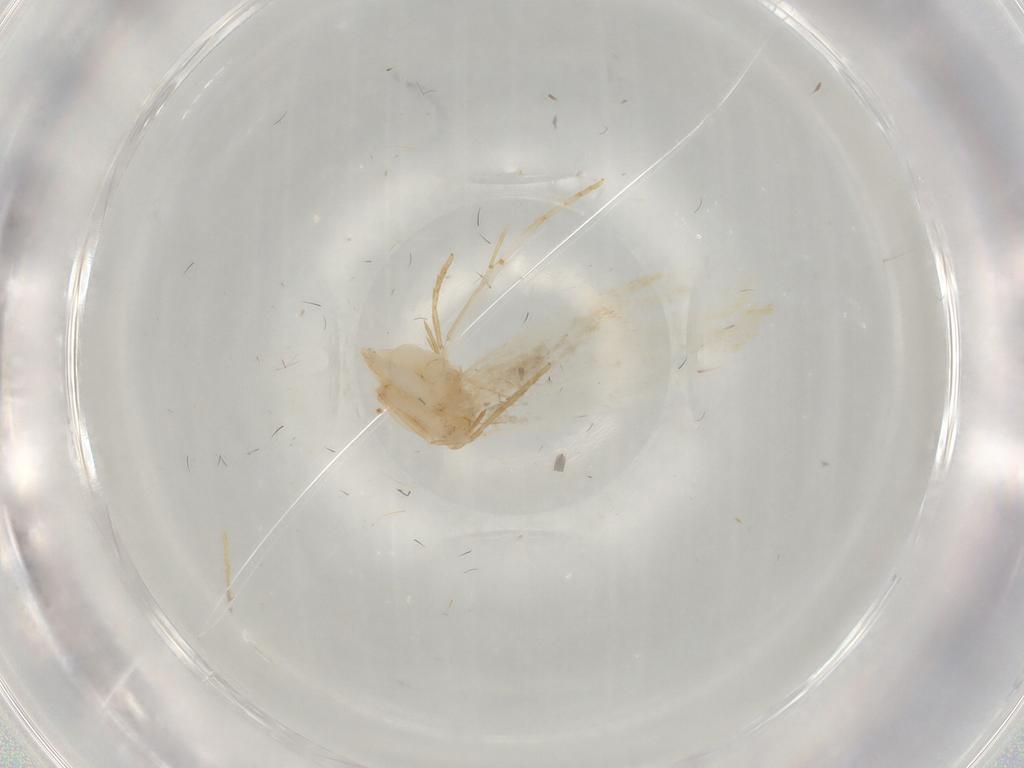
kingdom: Animalia
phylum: Arthropoda
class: Insecta
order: Lepidoptera
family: Tineidae
